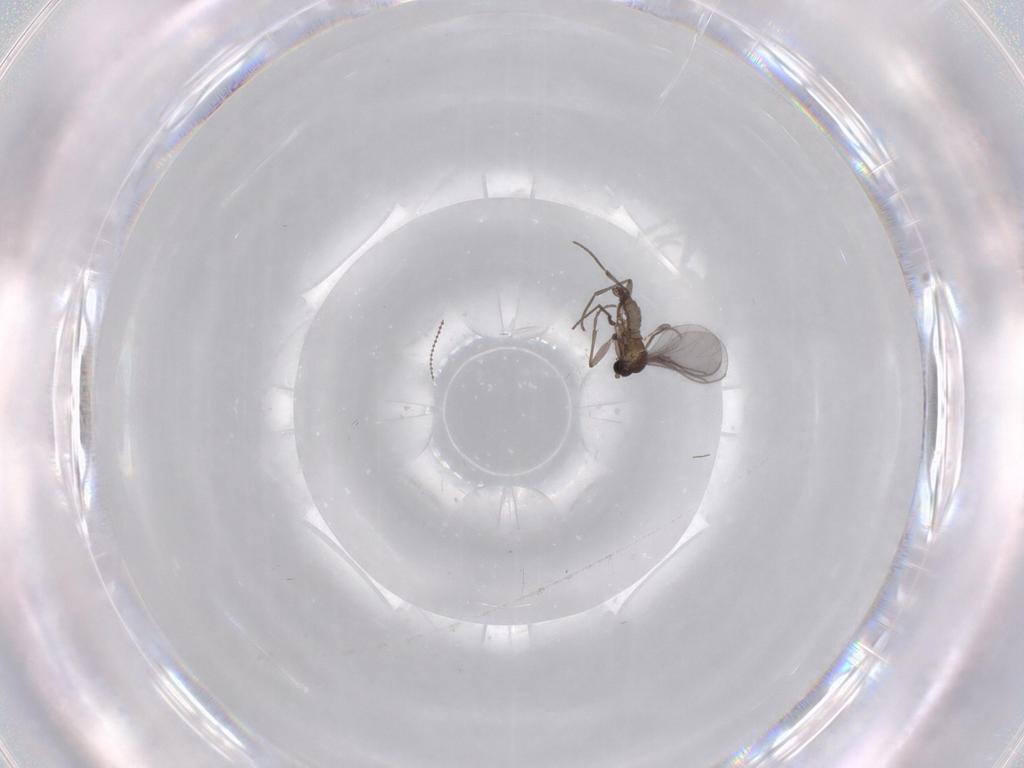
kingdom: Animalia
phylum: Arthropoda
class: Insecta
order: Diptera
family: Sciaridae
